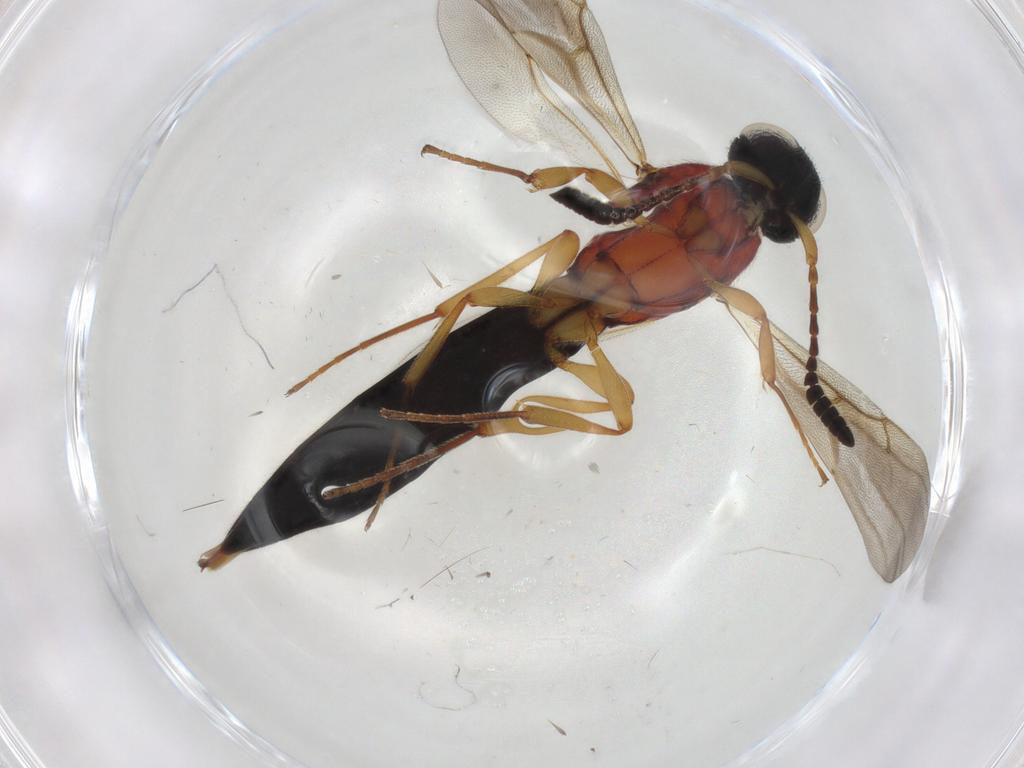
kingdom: Animalia
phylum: Arthropoda
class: Insecta
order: Hymenoptera
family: Scelionidae
